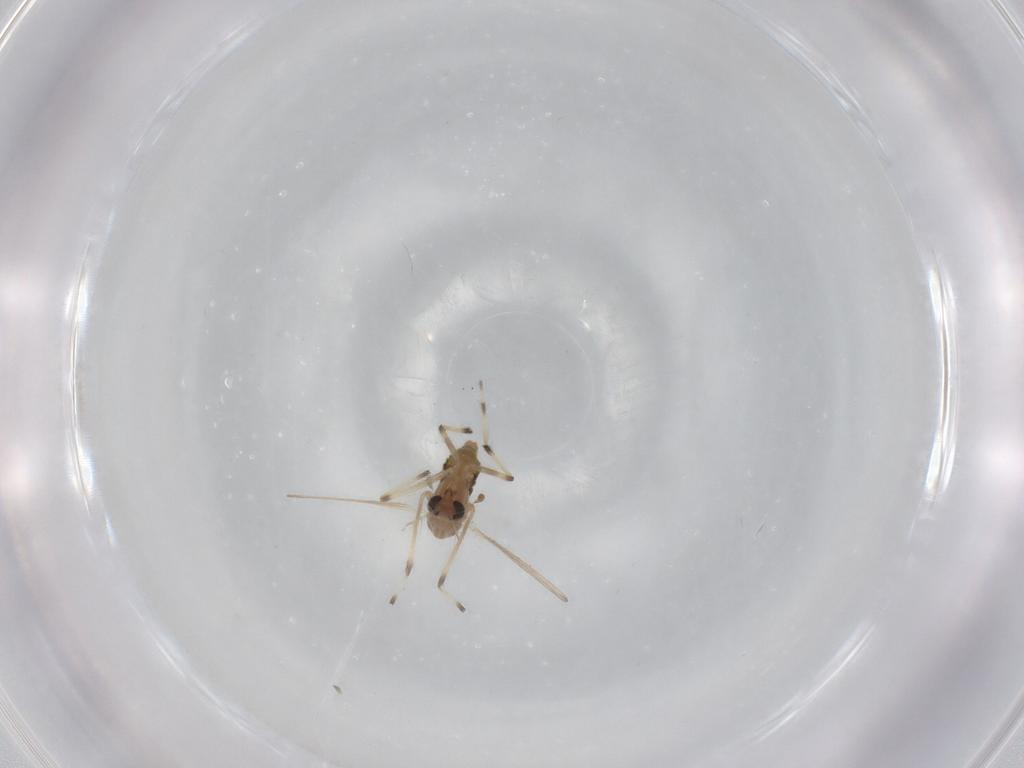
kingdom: Animalia
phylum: Arthropoda
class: Insecta
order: Diptera
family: Chironomidae
